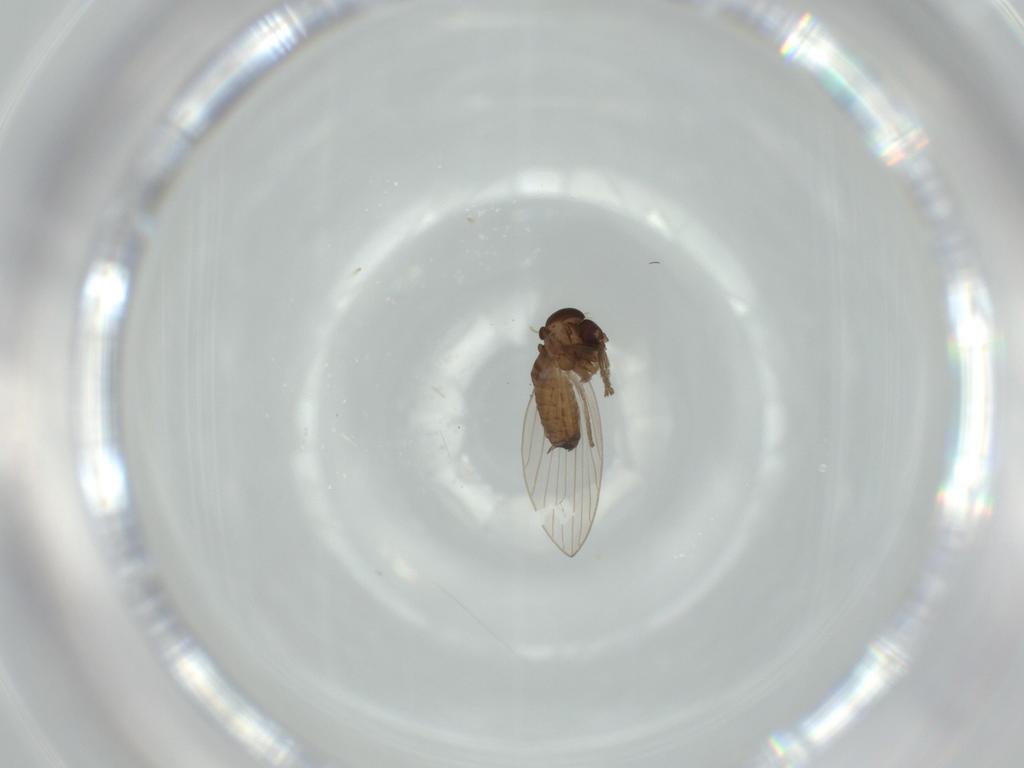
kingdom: Animalia
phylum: Arthropoda
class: Insecta
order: Diptera
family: Psychodidae
